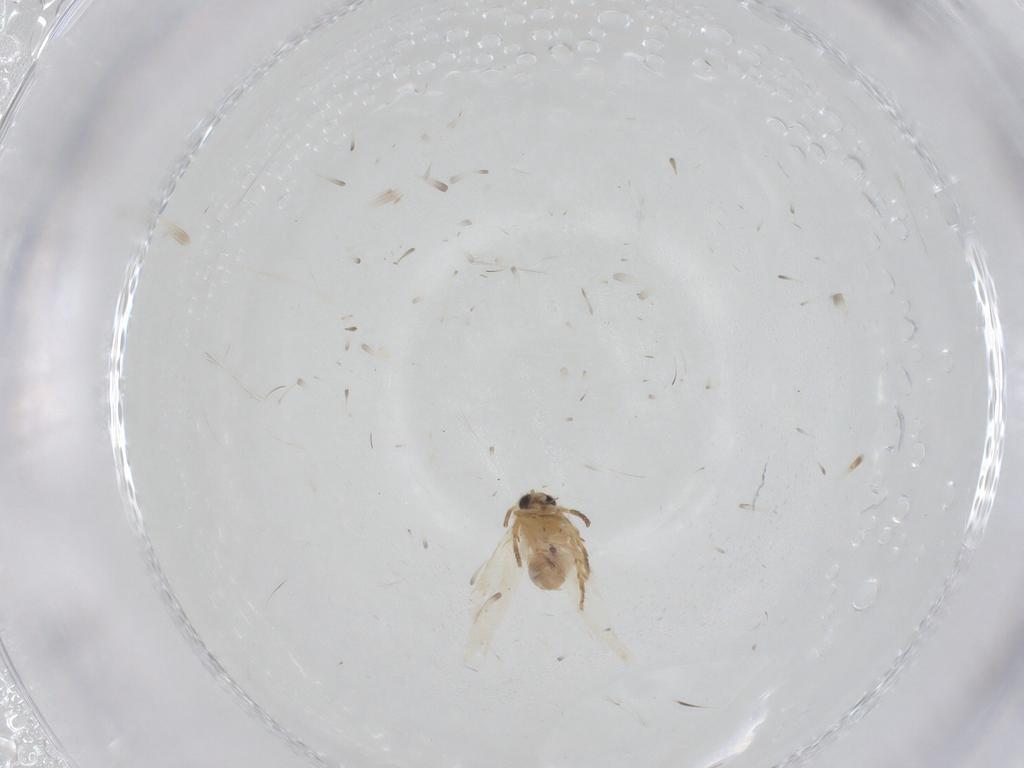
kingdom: Animalia
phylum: Arthropoda
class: Insecta
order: Lepidoptera
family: Nepticulidae
